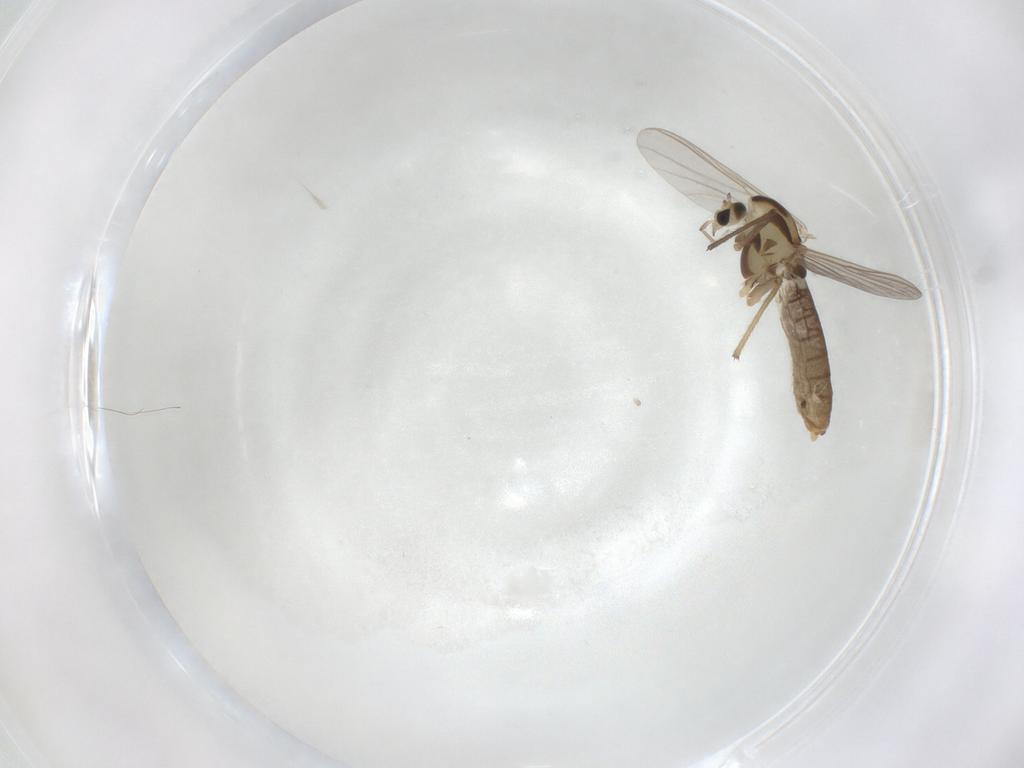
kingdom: Animalia
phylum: Arthropoda
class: Insecta
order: Diptera
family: Chironomidae
